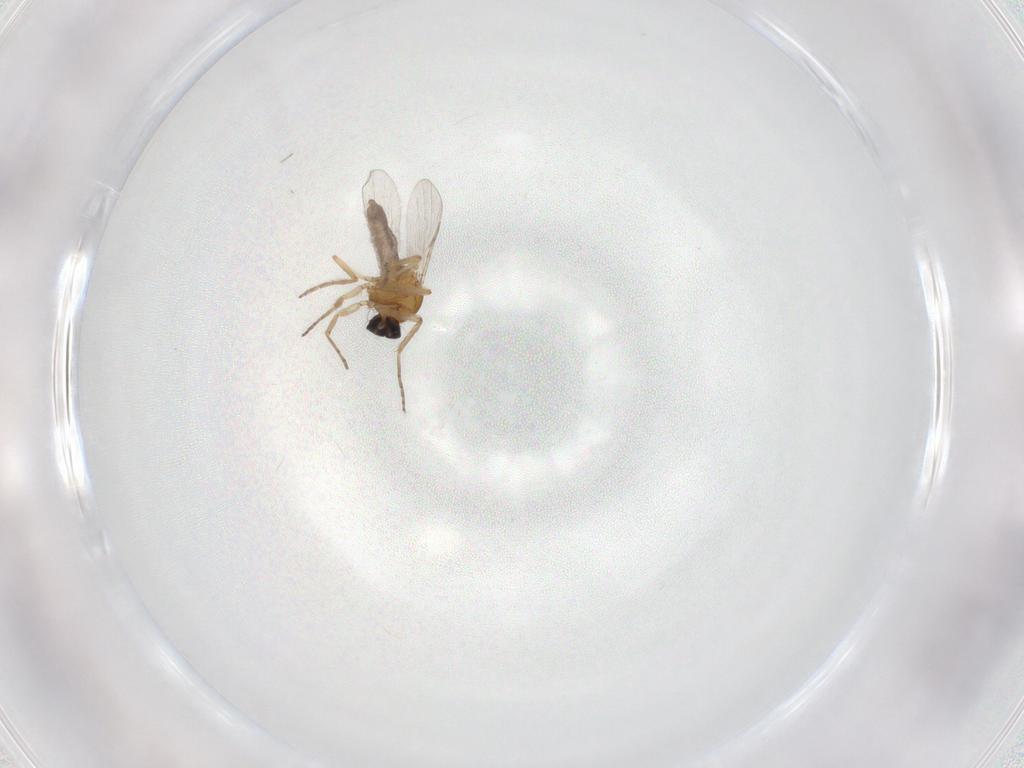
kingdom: Animalia
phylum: Arthropoda
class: Insecta
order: Diptera
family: Ceratopogonidae
